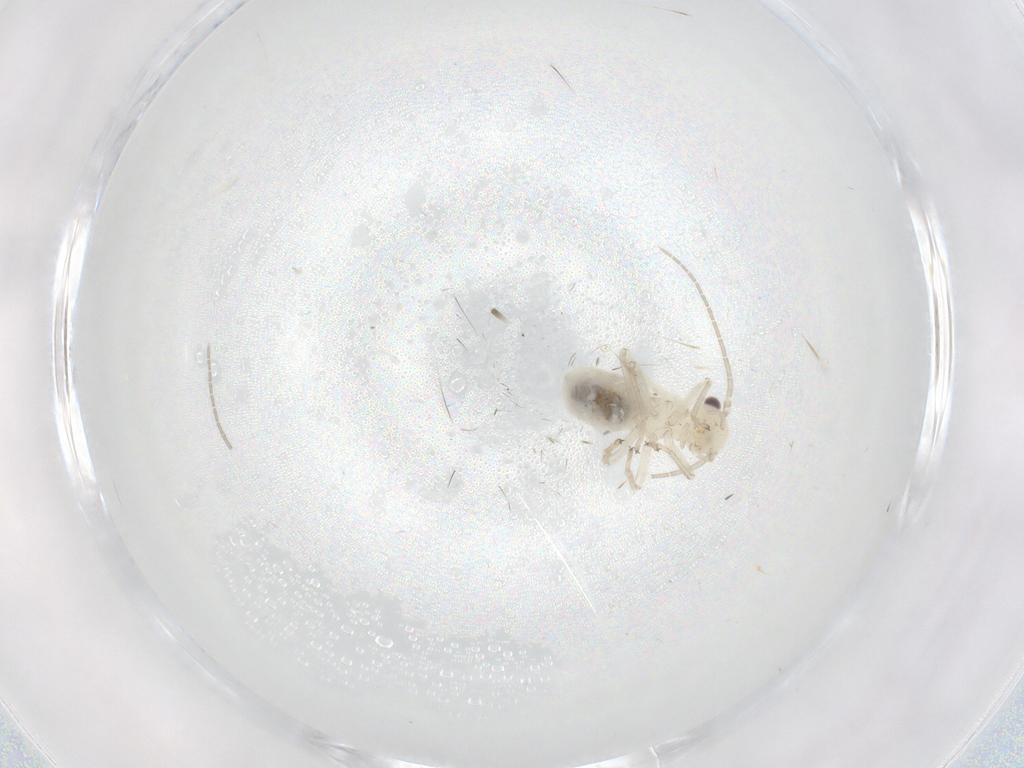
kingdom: Animalia
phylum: Arthropoda
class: Insecta
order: Psocodea
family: Caeciliusidae
